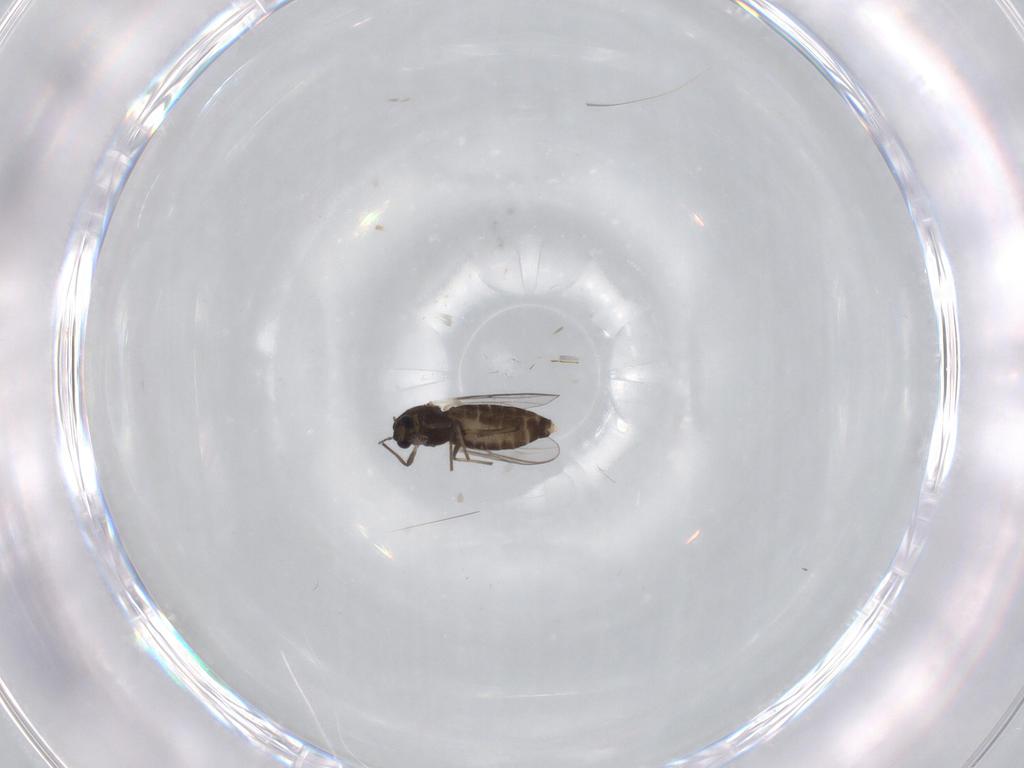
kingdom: Animalia
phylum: Arthropoda
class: Insecta
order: Diptera
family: Chironomidae
